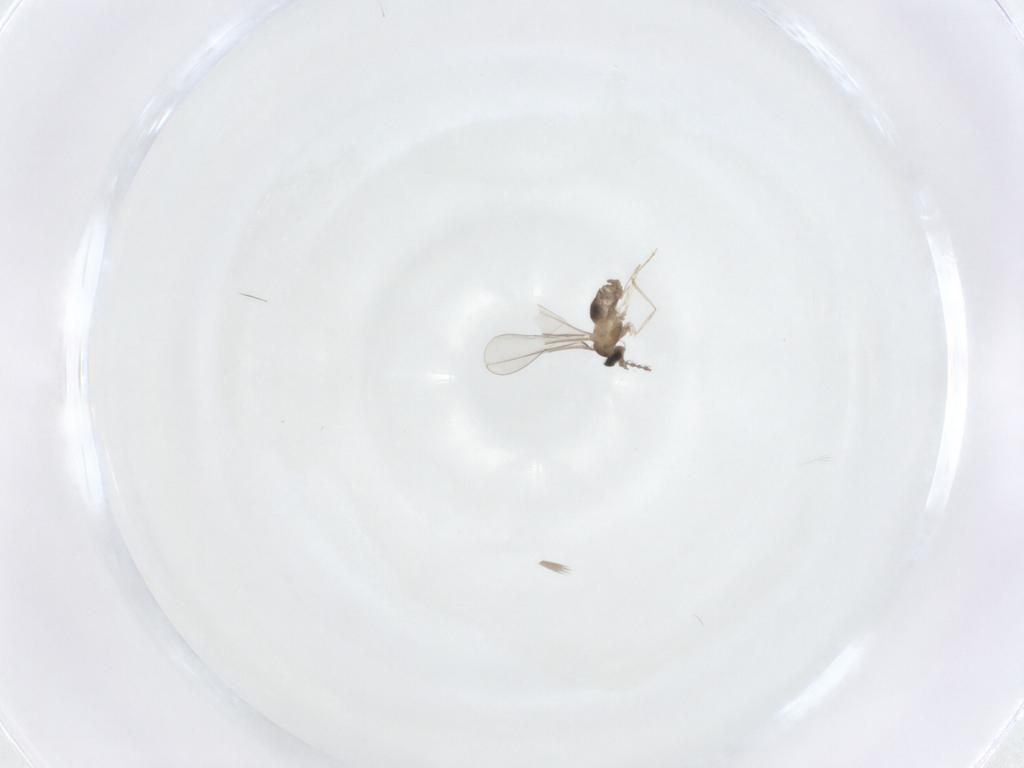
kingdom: Animalia
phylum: Arthropoda
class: Insecta
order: Diptera
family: Cecidomyiidae
